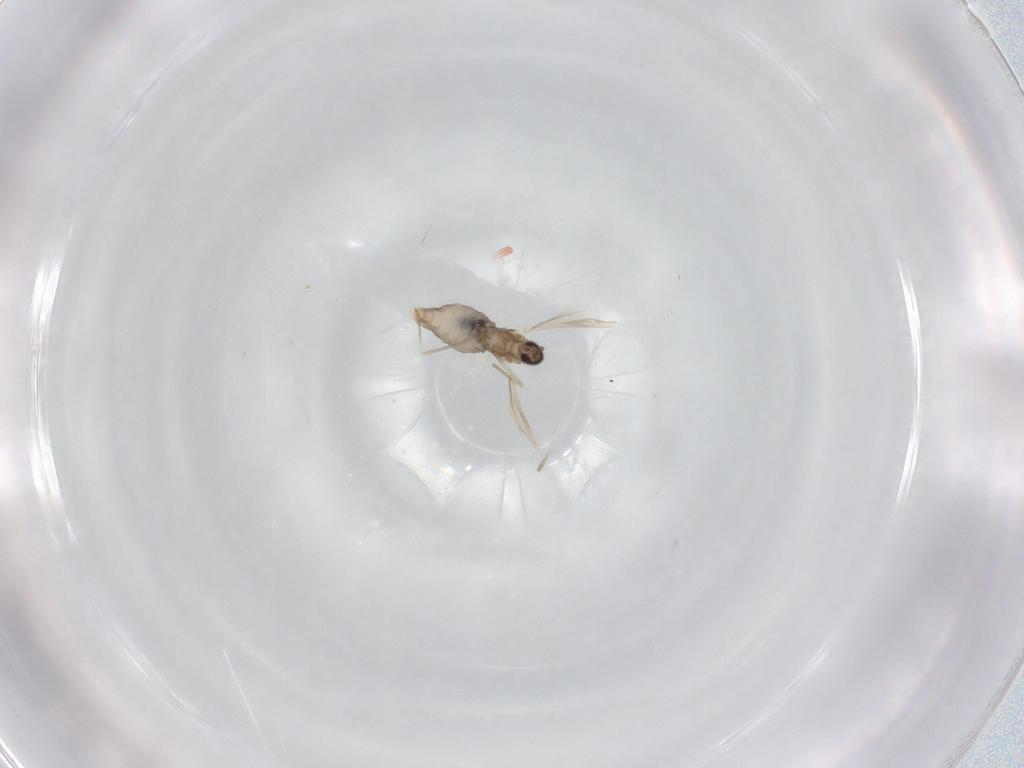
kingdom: Animalia
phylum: Arthropoda
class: Insecta
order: Diptera
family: Cecidomyiidae
